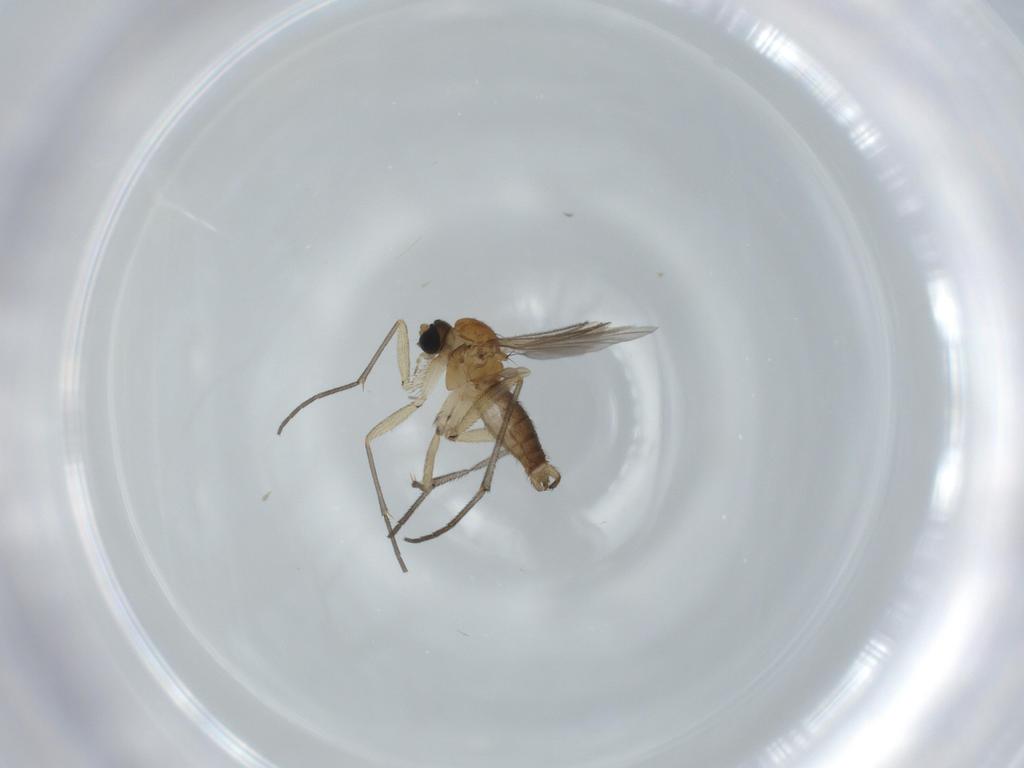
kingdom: Animalia
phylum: Arthropoda
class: Insecta
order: Diptera
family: Sciaridae
